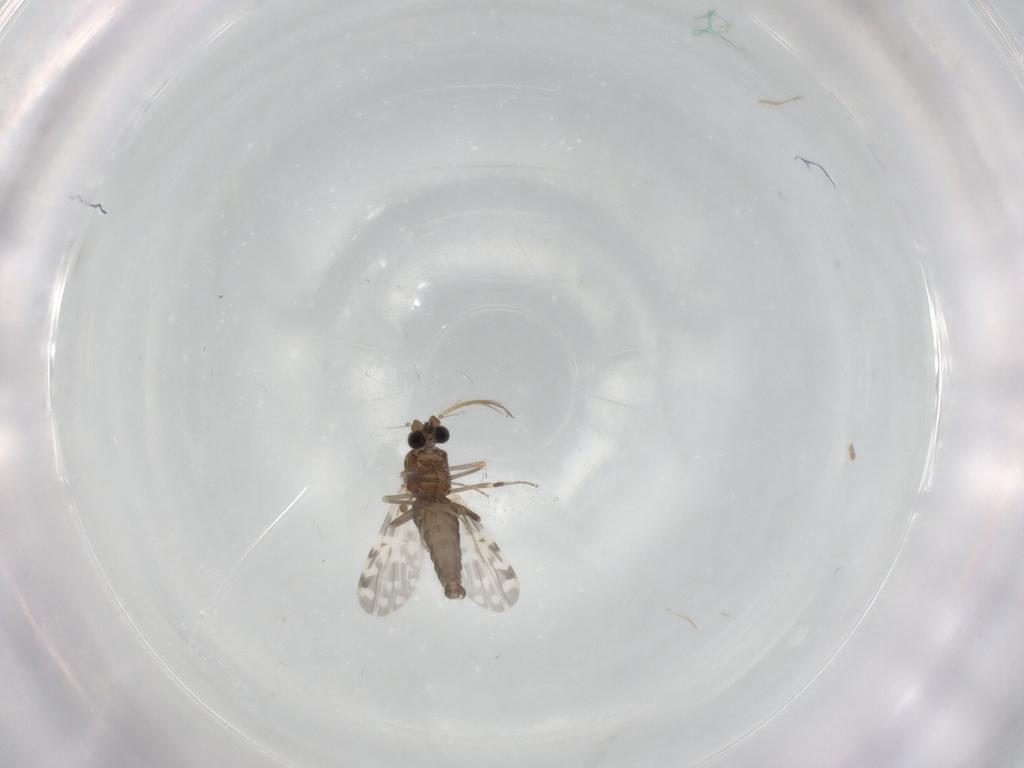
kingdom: Animalia
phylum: Arthropoda
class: Insecta
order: Diptera
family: Ceratopogonidae
